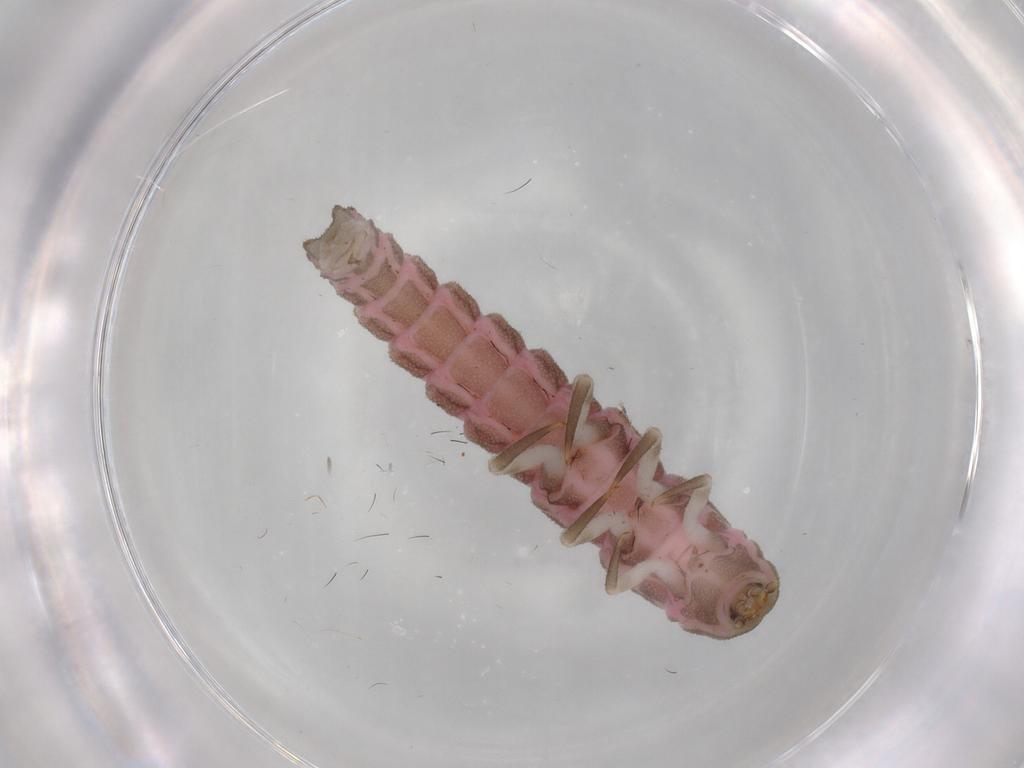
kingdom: Animalia
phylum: Arthropoda
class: Insecta
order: Coleoptera
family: Lampyridae
